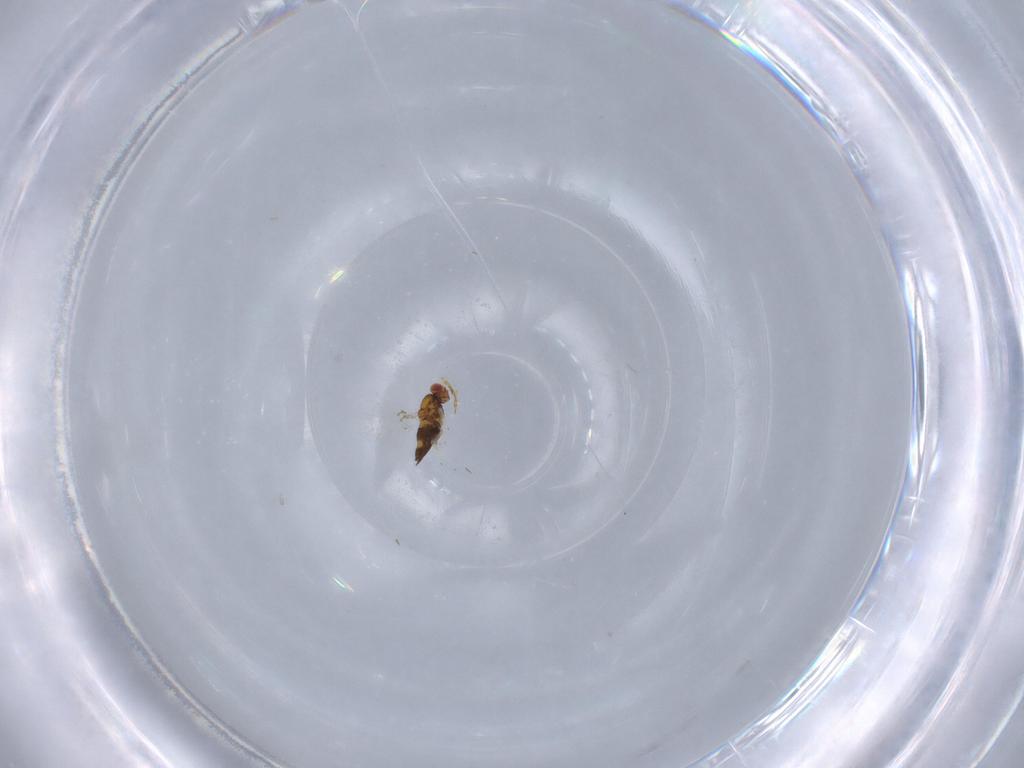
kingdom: Animalia
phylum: Arthropoda
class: Insecta
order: Hymenoptera
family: Trichogrammatidae
